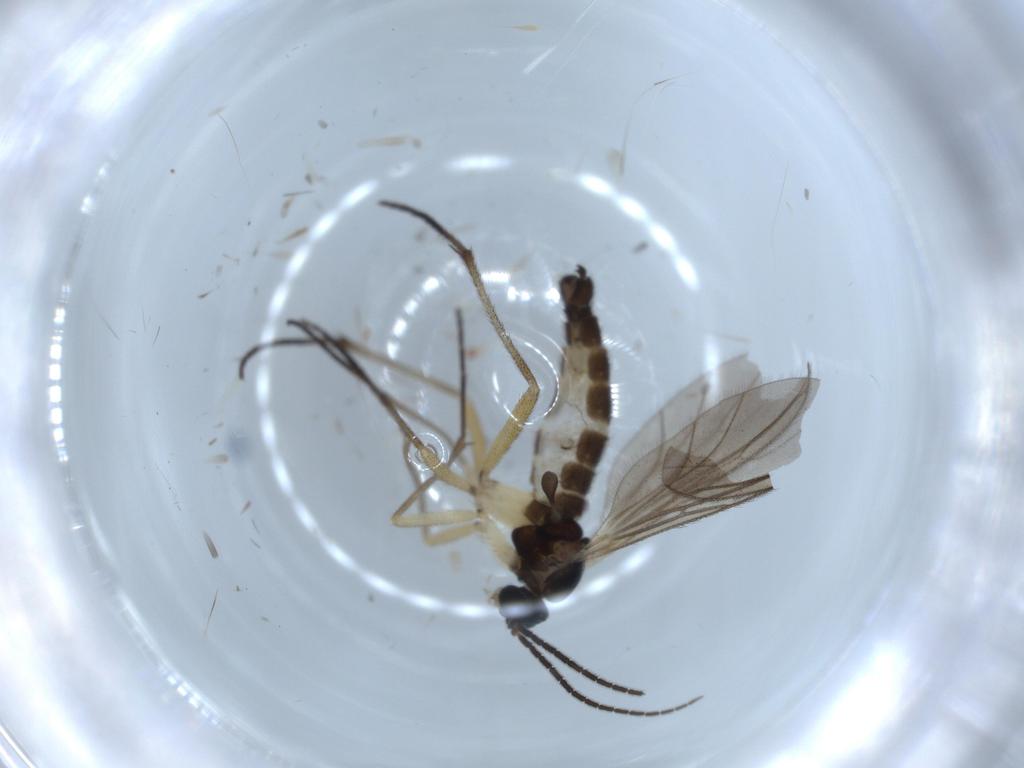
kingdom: Animalia
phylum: Arthropoda
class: Insecta
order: Diptera
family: Sciaridae
